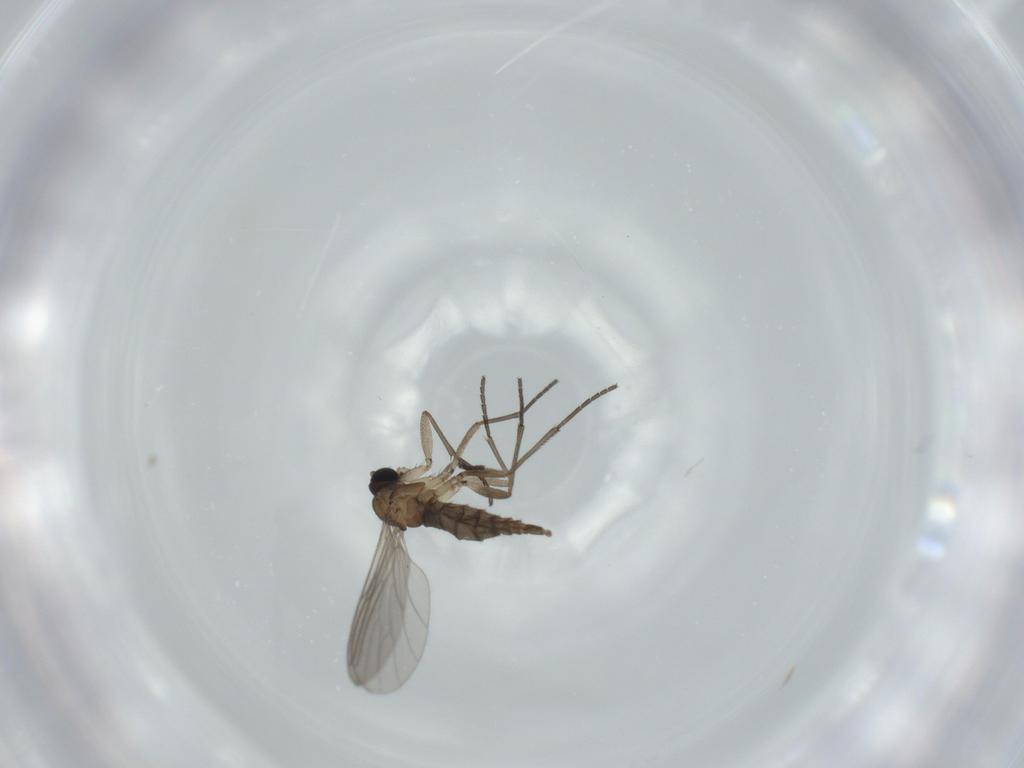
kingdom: Animalia
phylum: Arthropoda
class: Insecta
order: Diptera
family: Sciaridae
